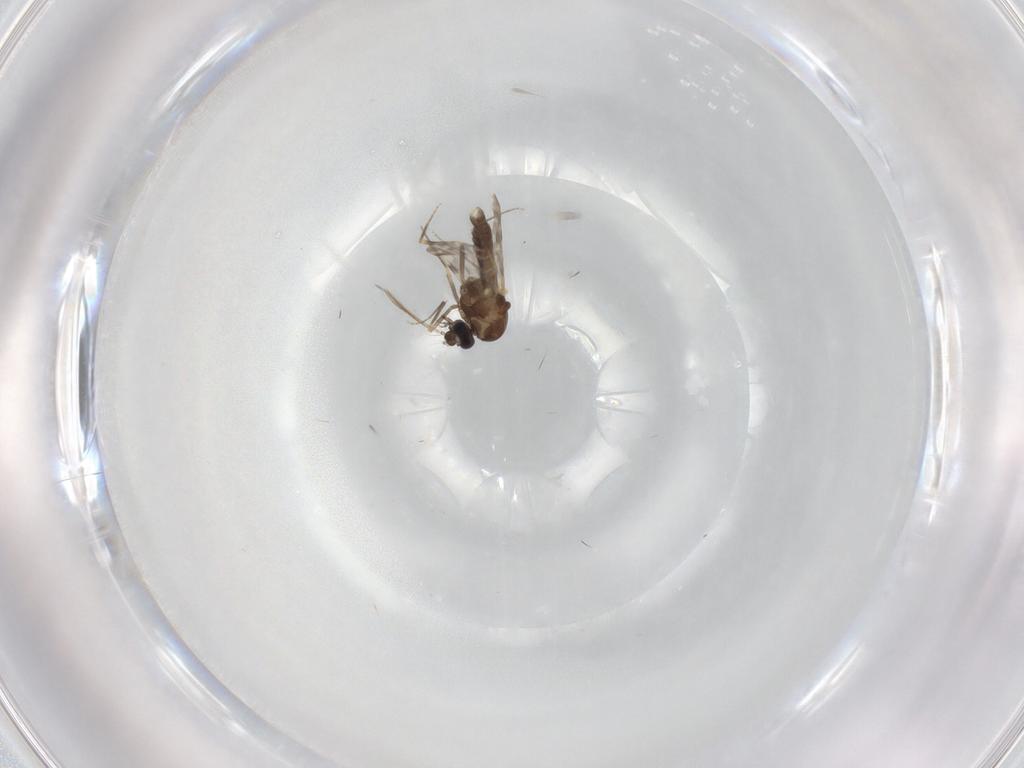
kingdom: Animalia
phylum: Arthropoda
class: Insecta
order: Diptera
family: Ceratopogonidae
